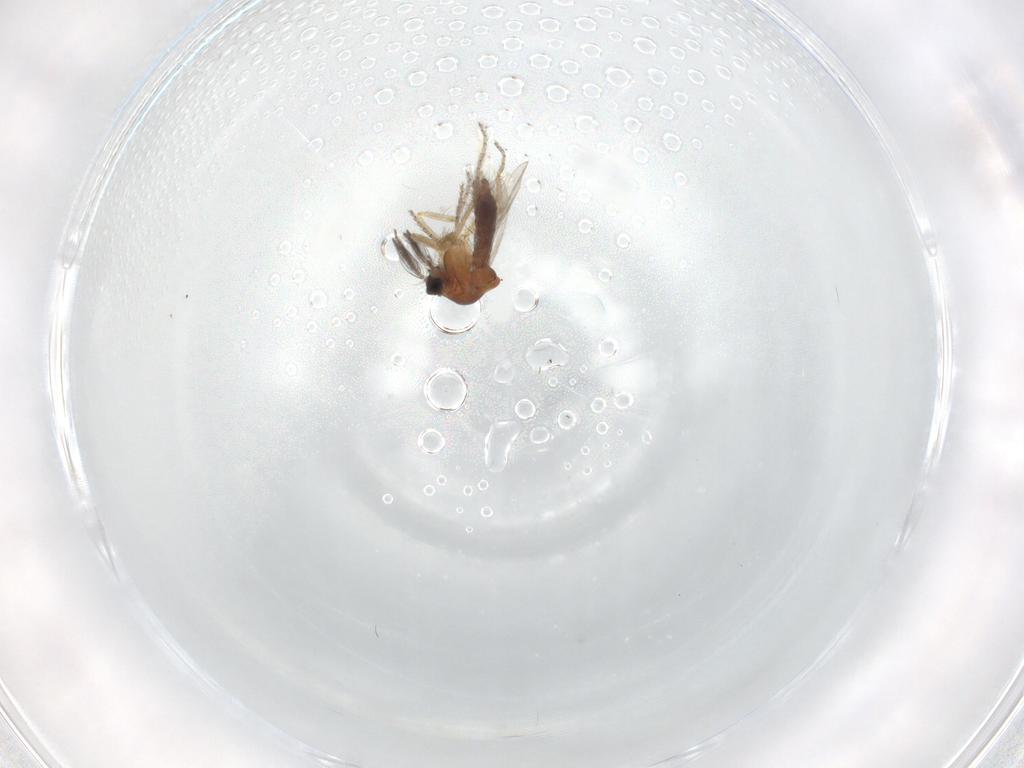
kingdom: Animalia
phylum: Arthropoda
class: Insecta
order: Diptera
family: Ceratopogonidae
